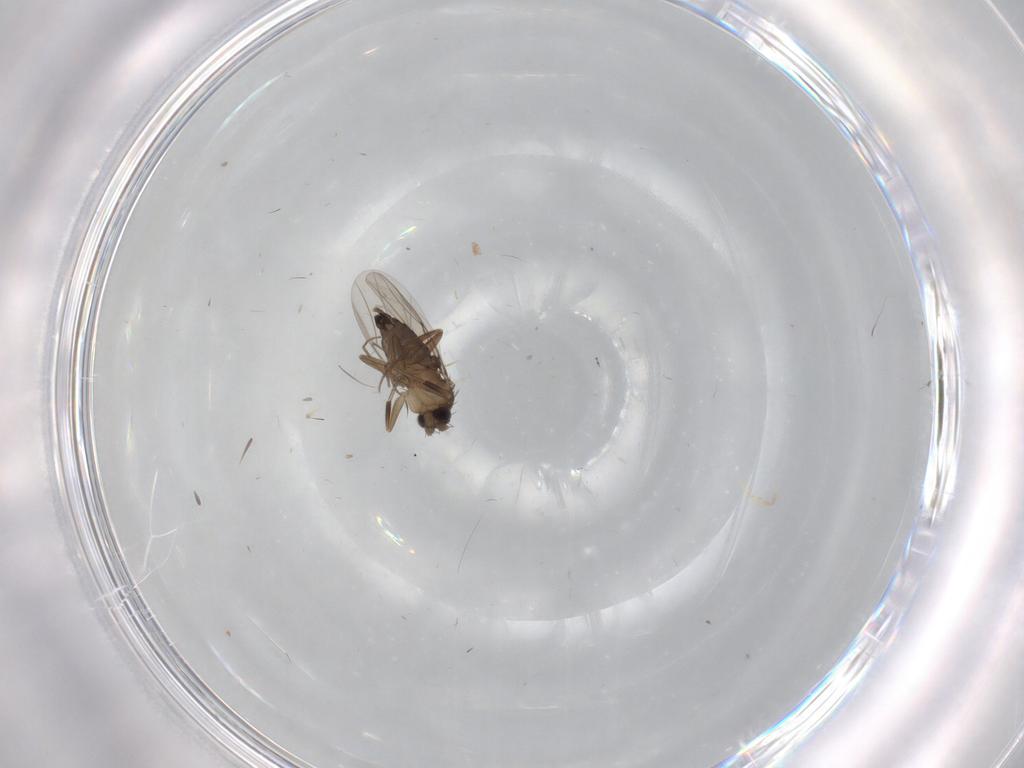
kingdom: Animalia
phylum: Arthropoda
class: Insecta
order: Diptera
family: Phoridae
